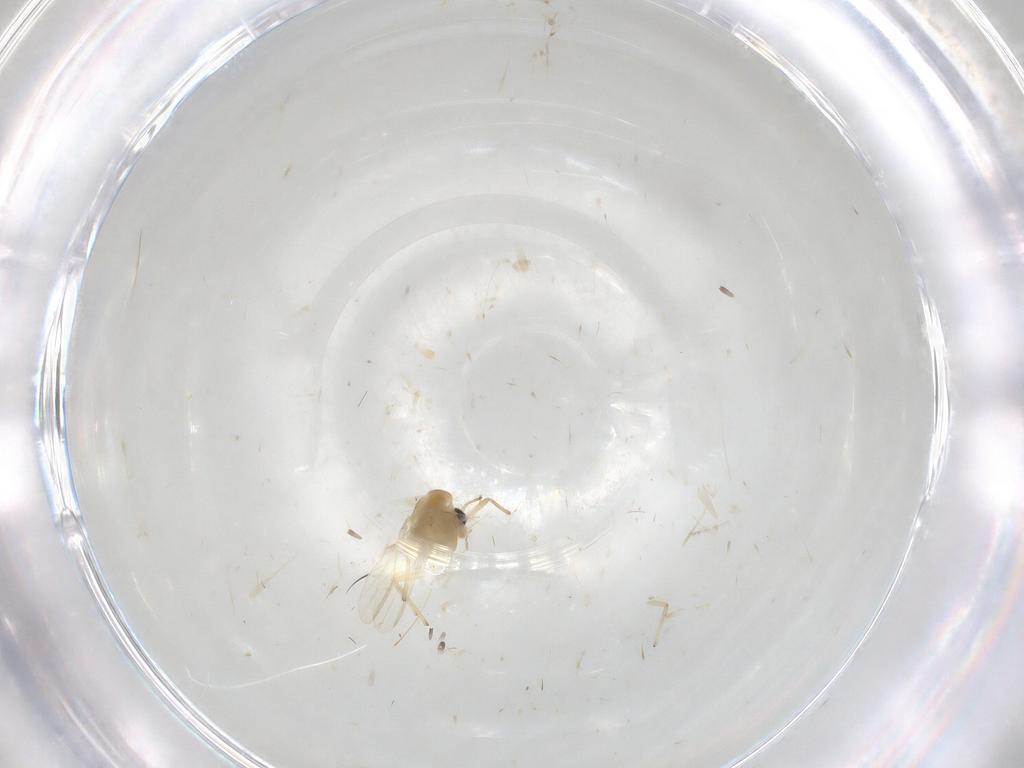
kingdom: Animalia
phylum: Arthropoda
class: Insecta
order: Diptera
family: Chironomidae
